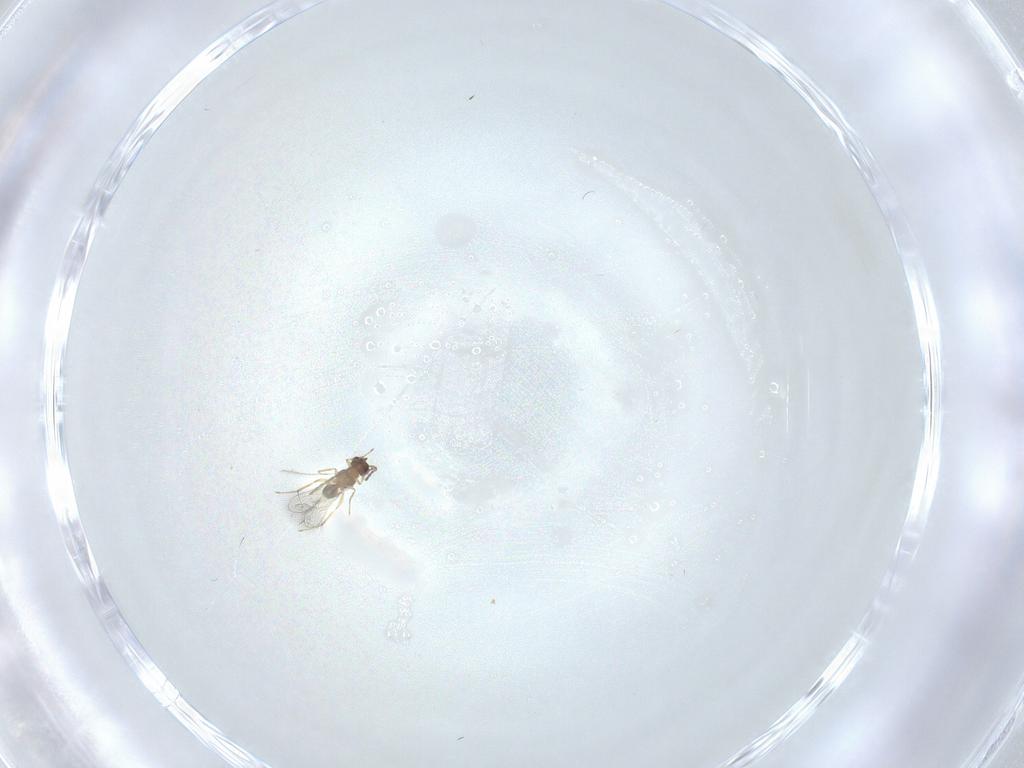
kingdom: Animalia
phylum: Arthropoda
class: Insecta
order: Hymenoptera
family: Mymaridae
